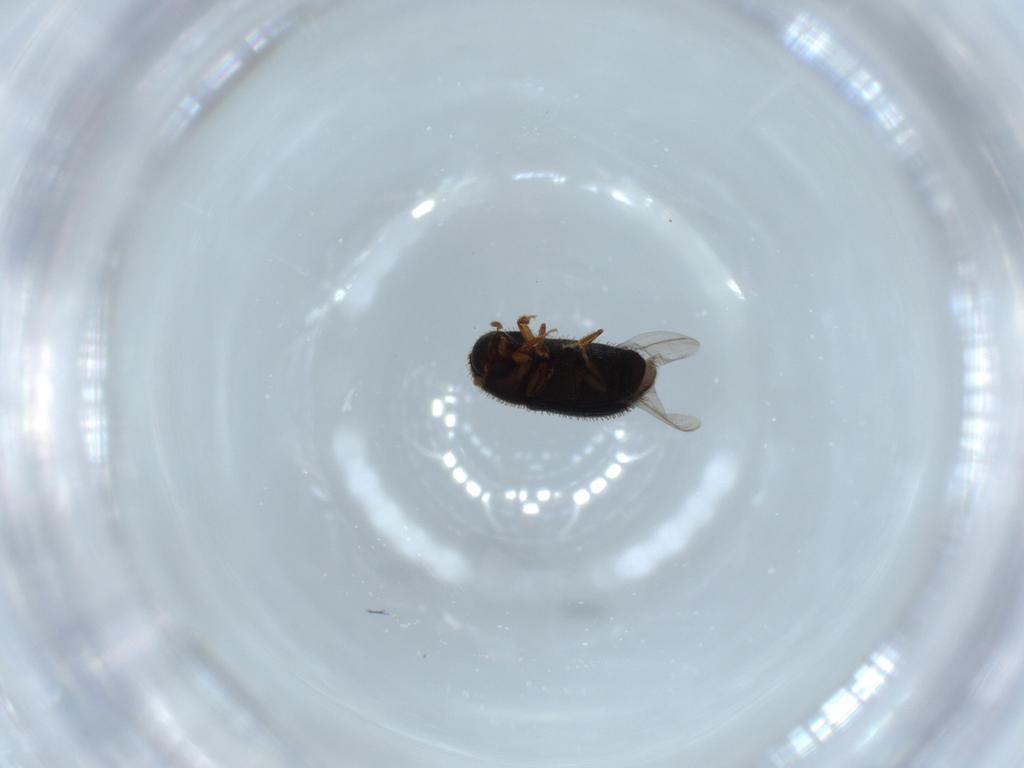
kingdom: Animalia
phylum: Arthropoda
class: Insecta
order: Coleoptera
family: Curculionidae
